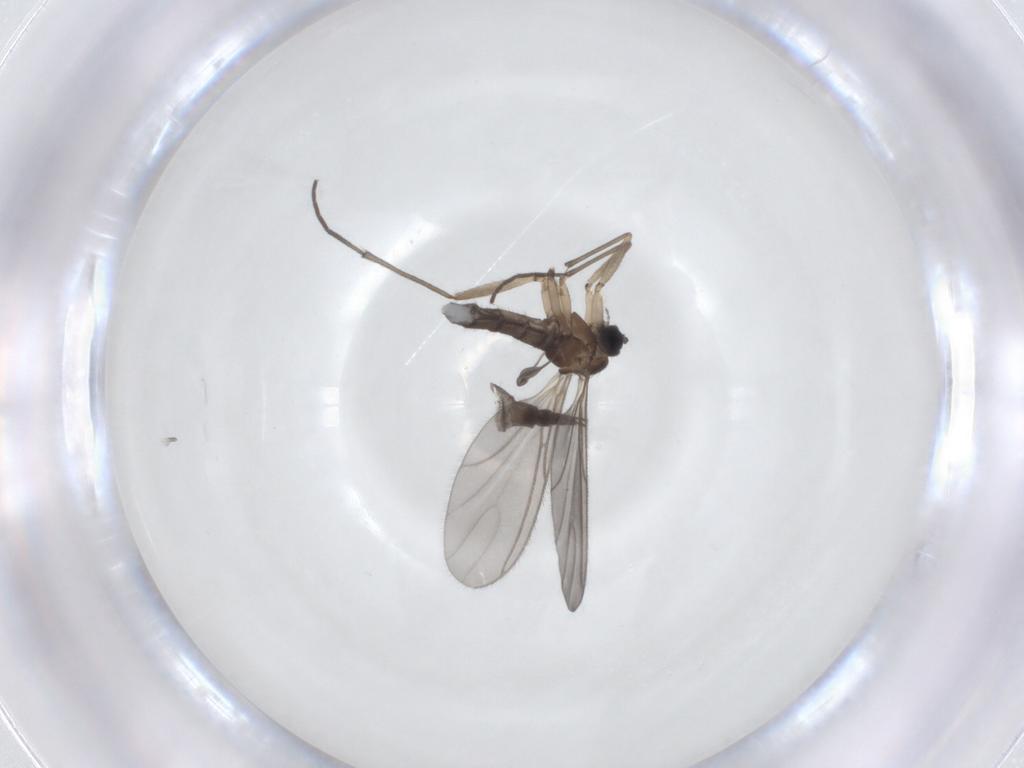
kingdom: Animalia
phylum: Arthropoda
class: Insecta
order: Diptera
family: Sciaridae
